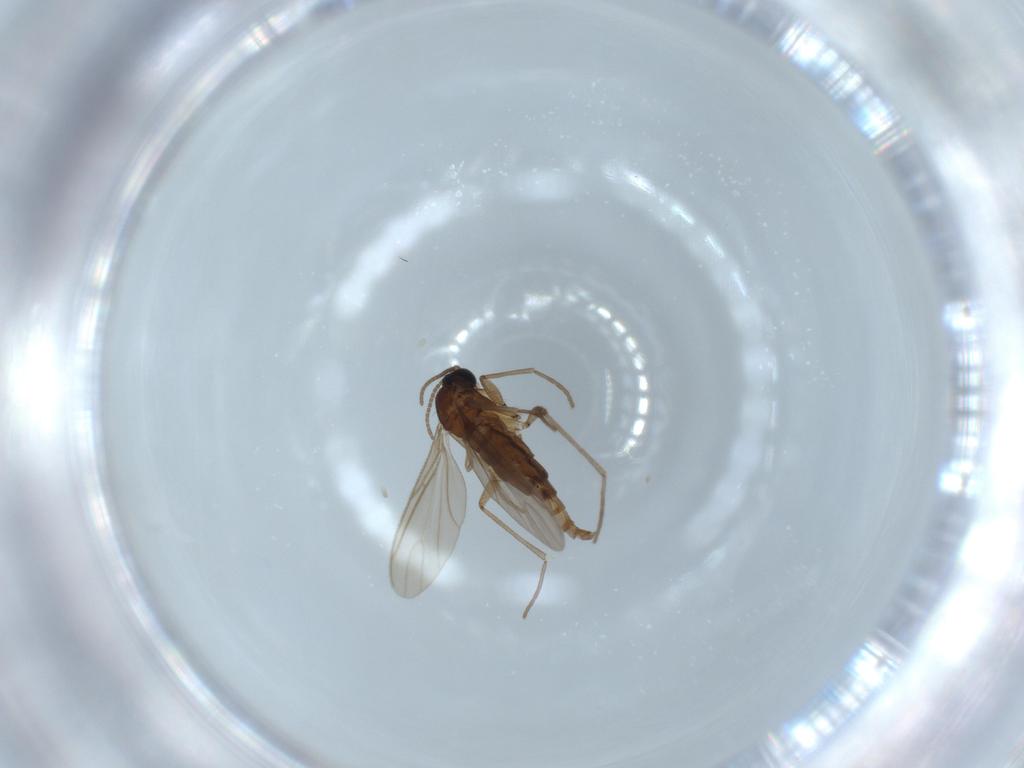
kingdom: Animalia
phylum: Arthropoda
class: Insecta
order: Diptera
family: Sciaridae
